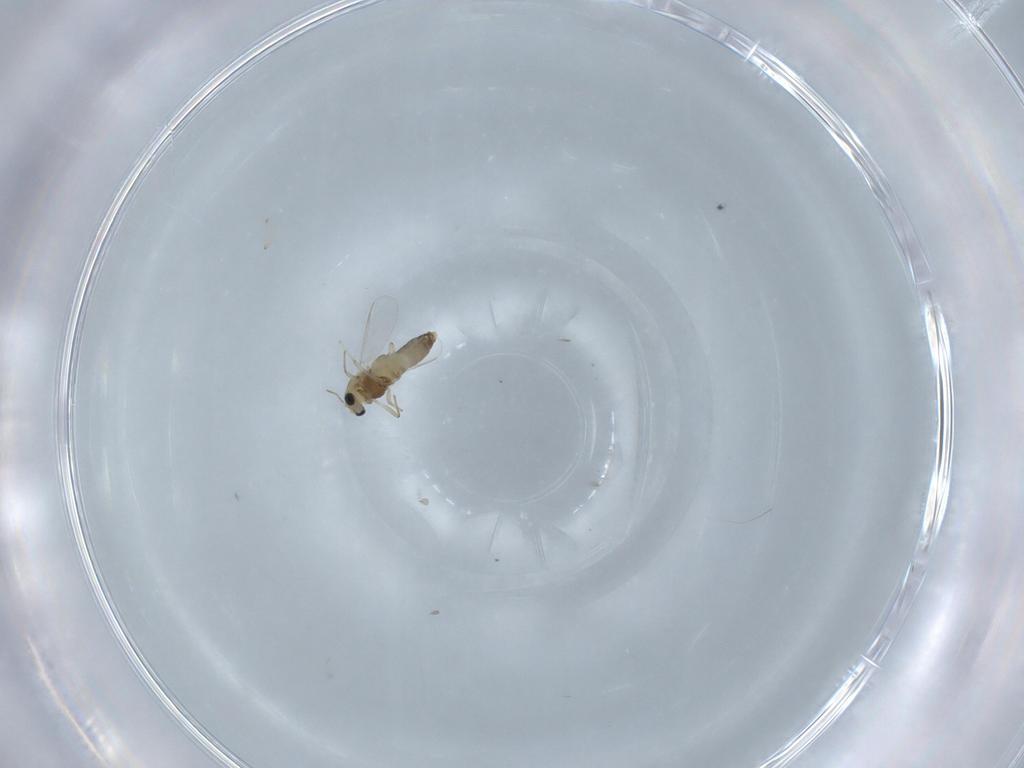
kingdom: Animalia
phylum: Arthropoda
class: Insecta
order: Diptera
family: Chironomidae
